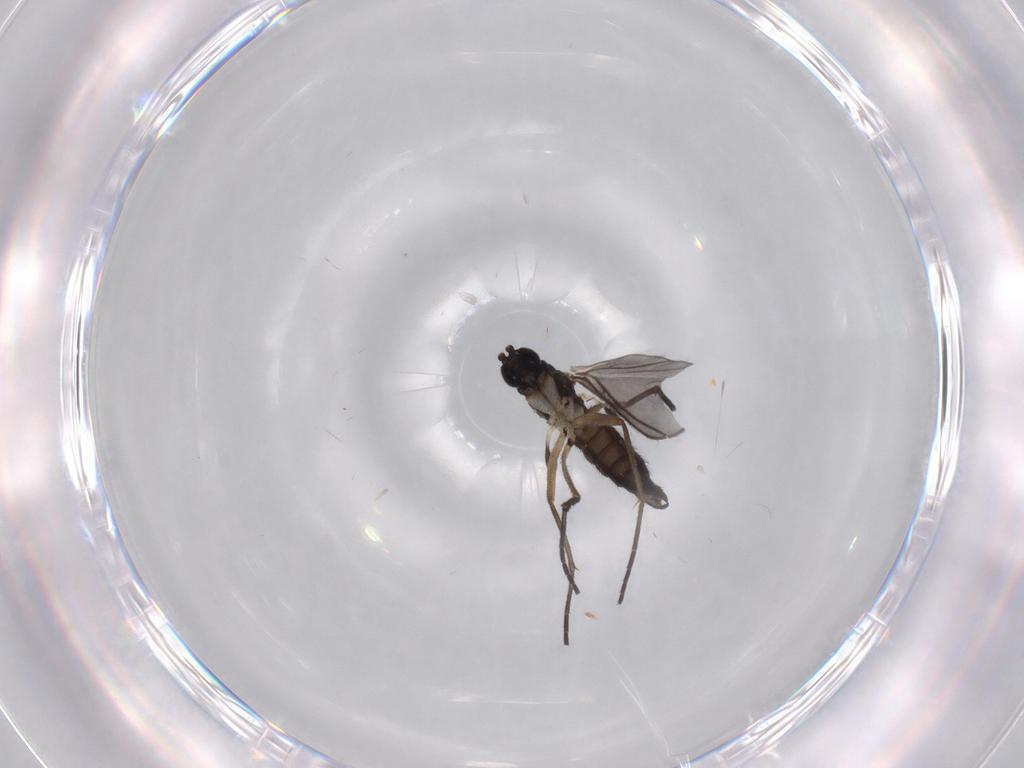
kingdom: Animalia
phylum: Arthropoda
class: Insecta
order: Diptera
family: Sciaridae
